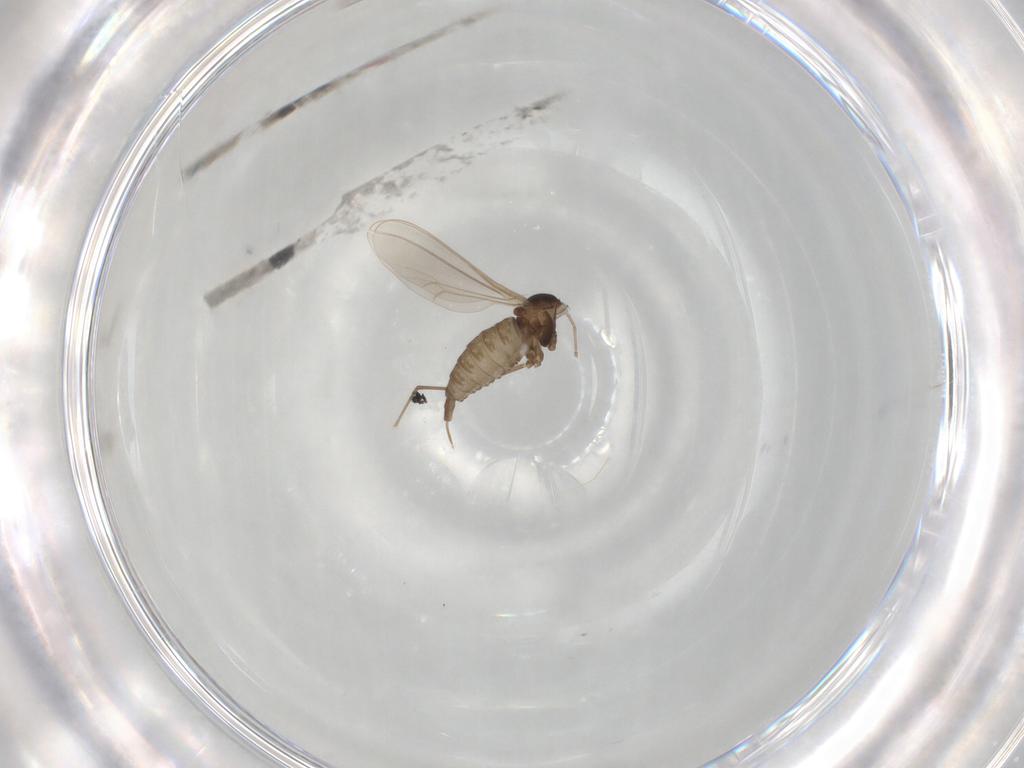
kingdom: Animalia
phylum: Arthropoda
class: Insecta
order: Diptera
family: Cecidomyiidae
